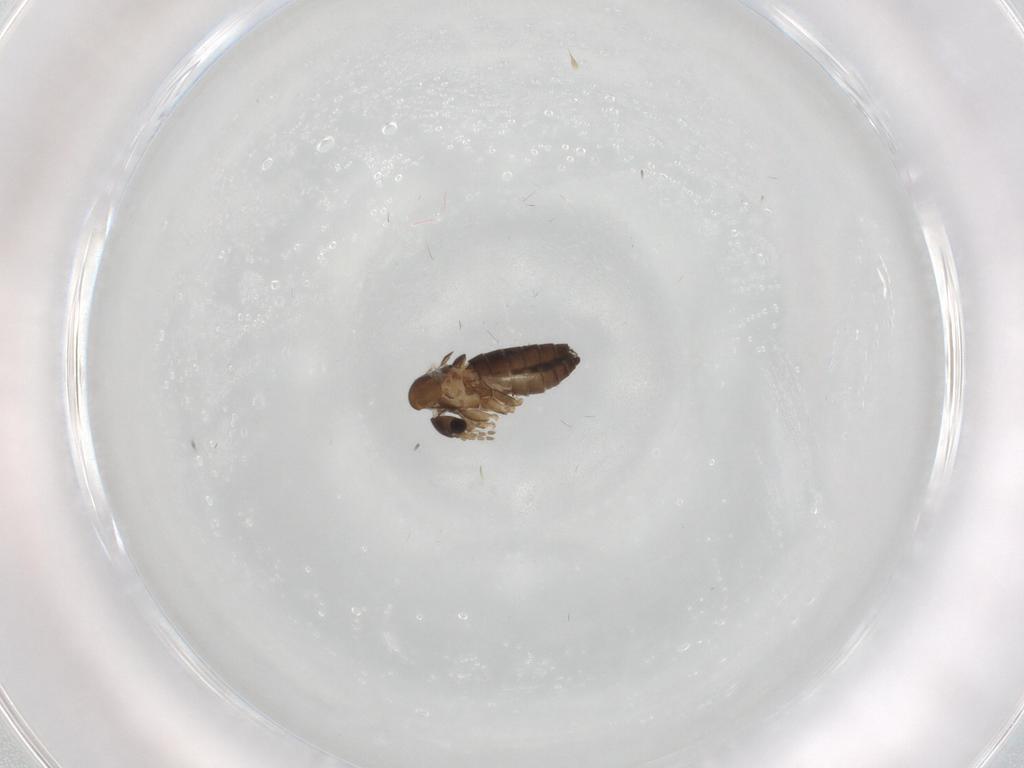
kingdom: Animalia
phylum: Arthropoda
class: Insecta
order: Diptera
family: Psychodidae
